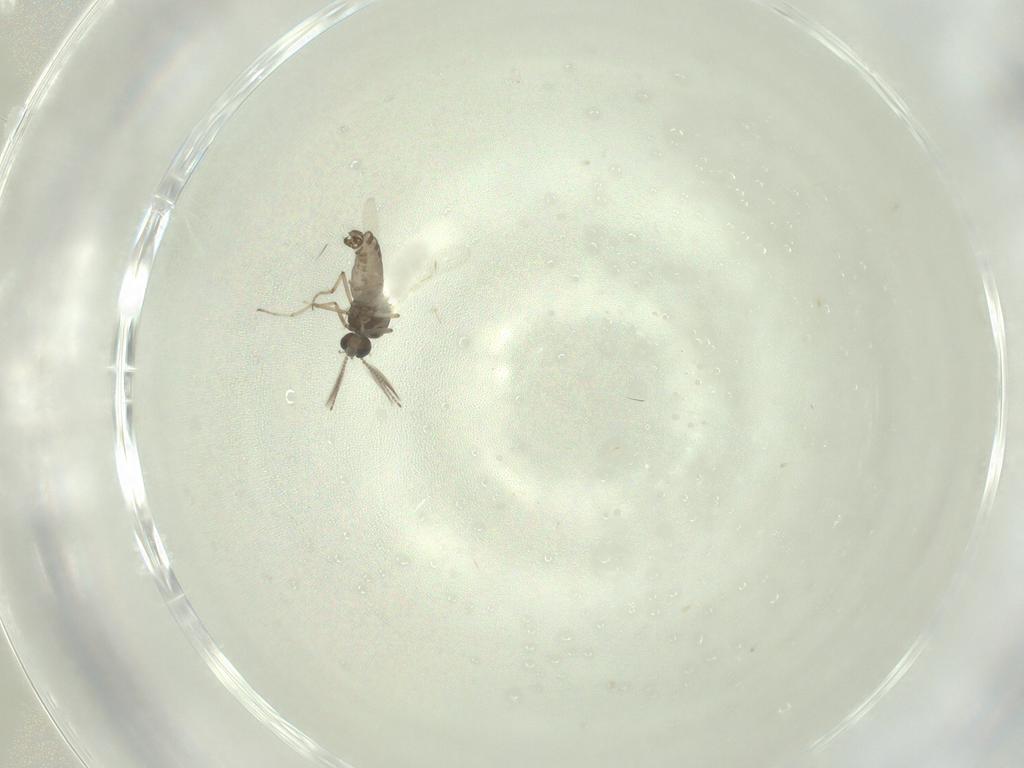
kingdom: Animalia
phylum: Arthropoda
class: Insecta
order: Diptera
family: Ceratopogonidae
